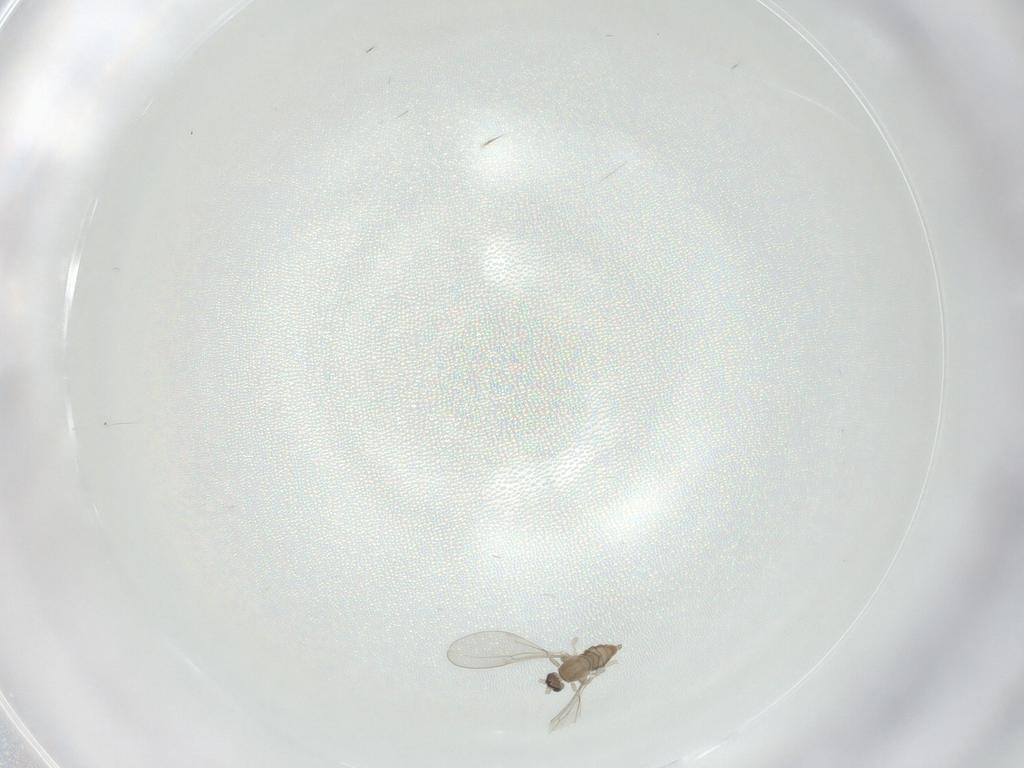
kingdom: Animalia
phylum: Arthropoda
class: Insecta
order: Diptera
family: Cecidomyiidae
